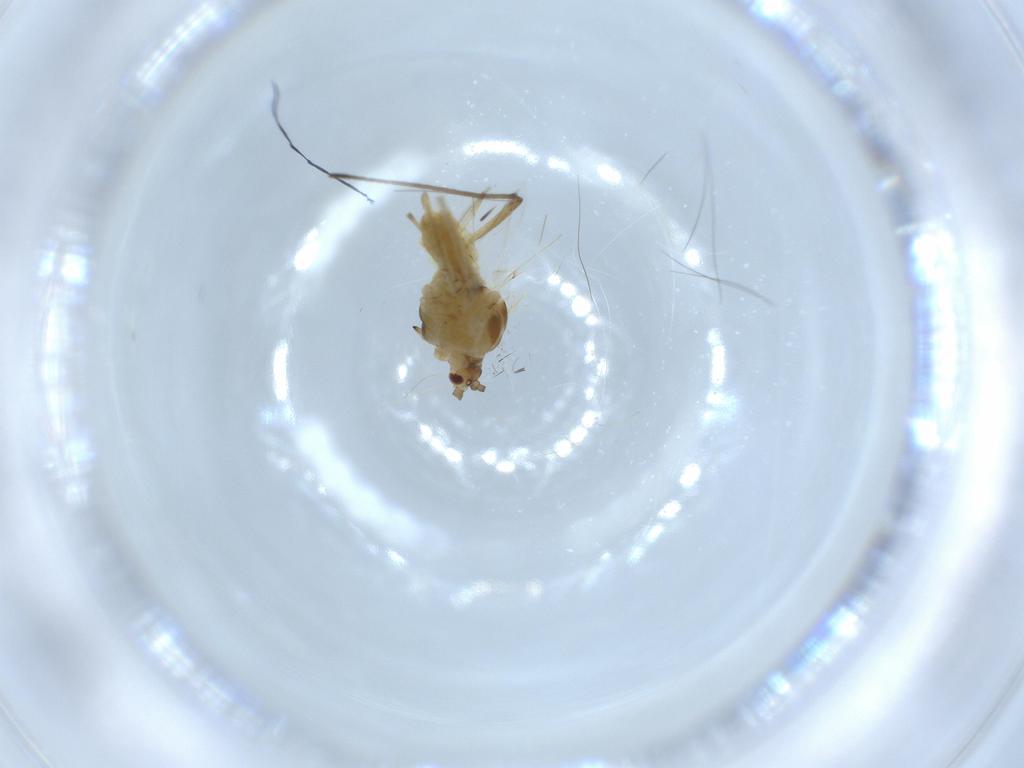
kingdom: Animalia
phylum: Arthropoda
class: Insecta
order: Hemiptera
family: Aphididae
